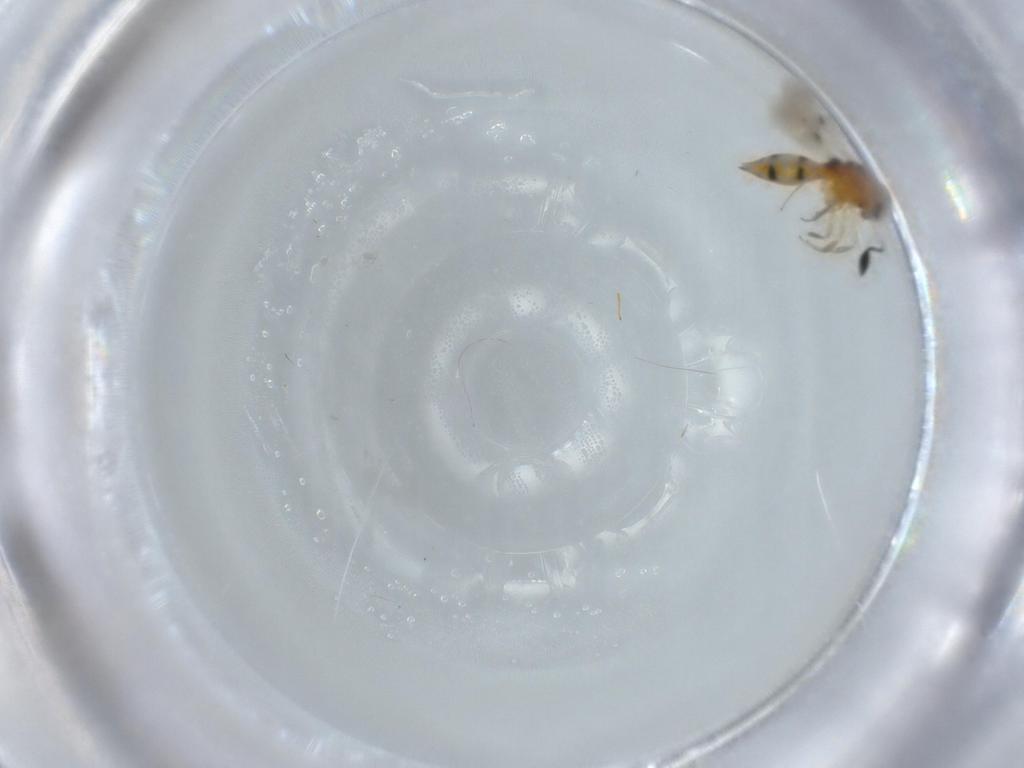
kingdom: Animalia
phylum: Arthropoda
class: Insecta
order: Hymenoptera
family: Scelionidae
